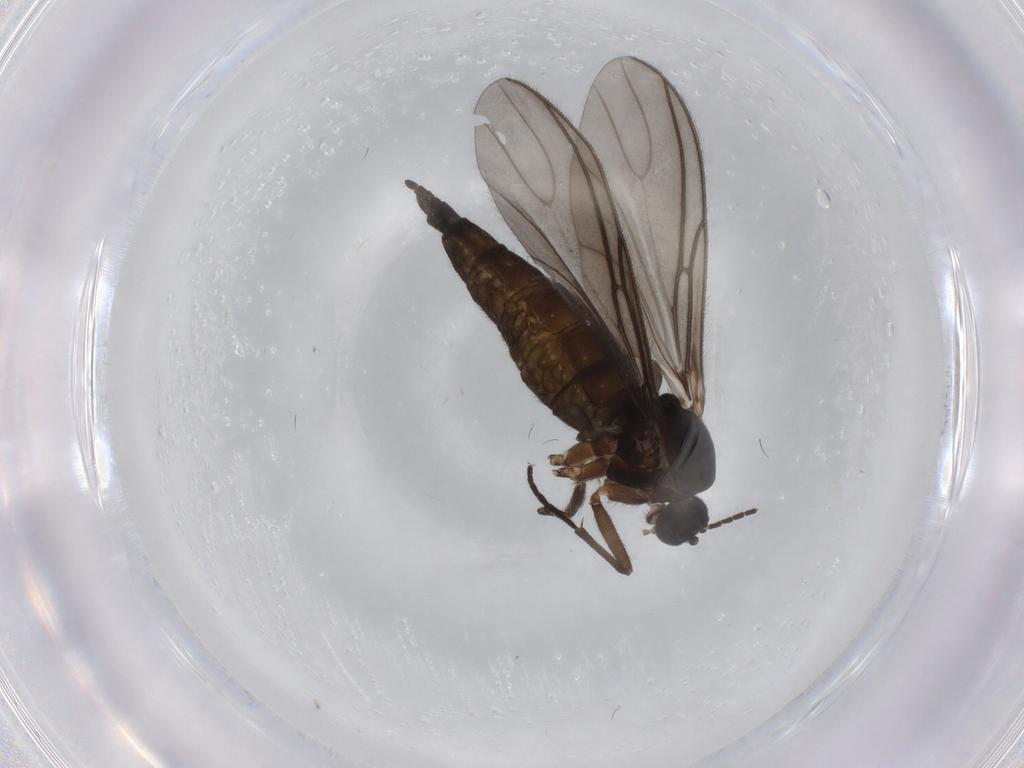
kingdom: Animalia
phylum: Arthropoda
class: Insecta
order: Diptera
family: Sciaridae
